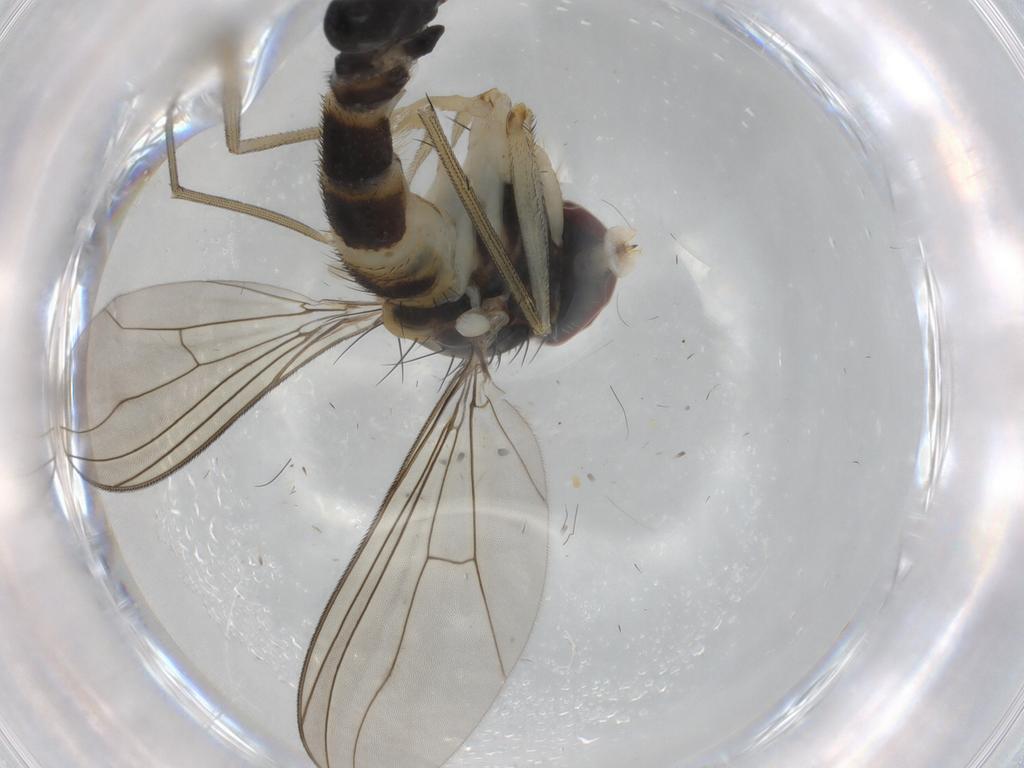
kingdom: Animalia
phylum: Arthropoda
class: Insecta
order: Diptera
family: Dolichopodidae
